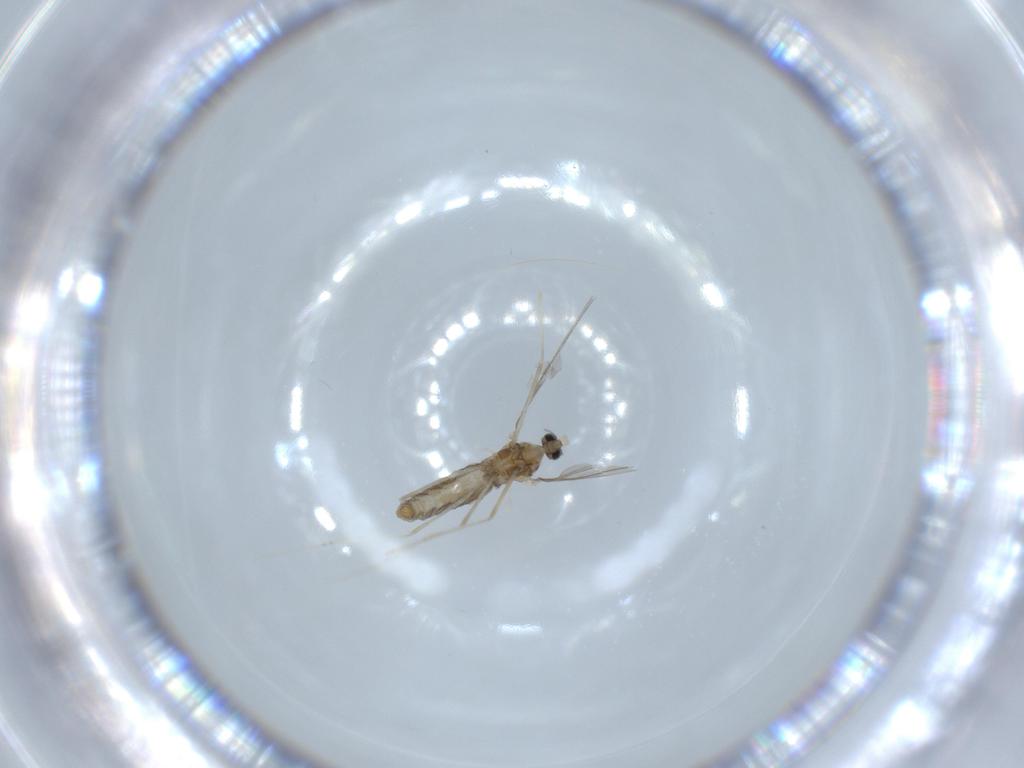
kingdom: Animalia
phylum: Arthropoda
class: Insecta
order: Diptera
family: Cecidomyiidae
